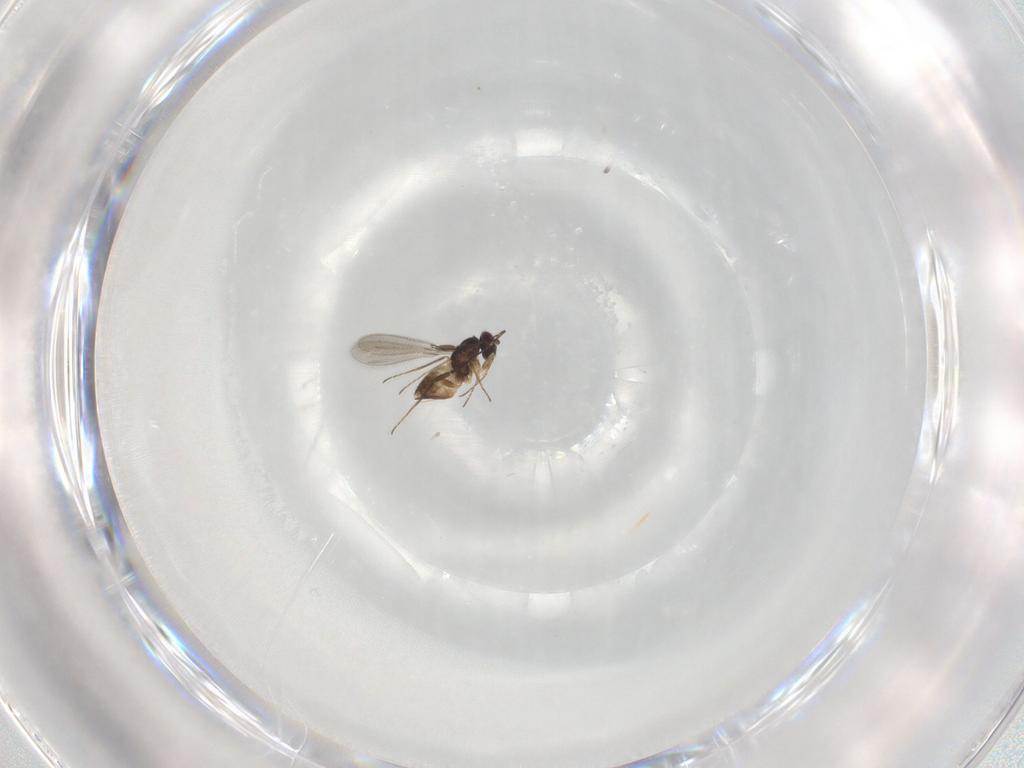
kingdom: Animalia
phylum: Arthropoda
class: Insecta
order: Hymenoptera
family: Mymaridae
